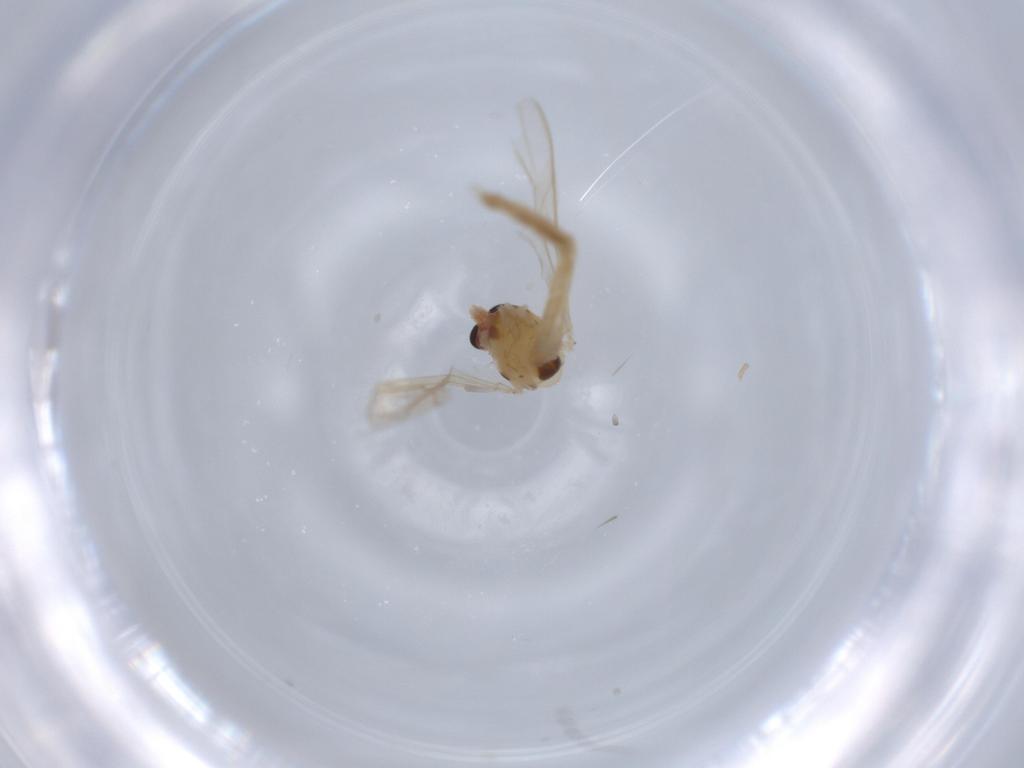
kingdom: Animalia
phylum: Arthropoda
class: Insecta
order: Diptera
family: Chironomidae
